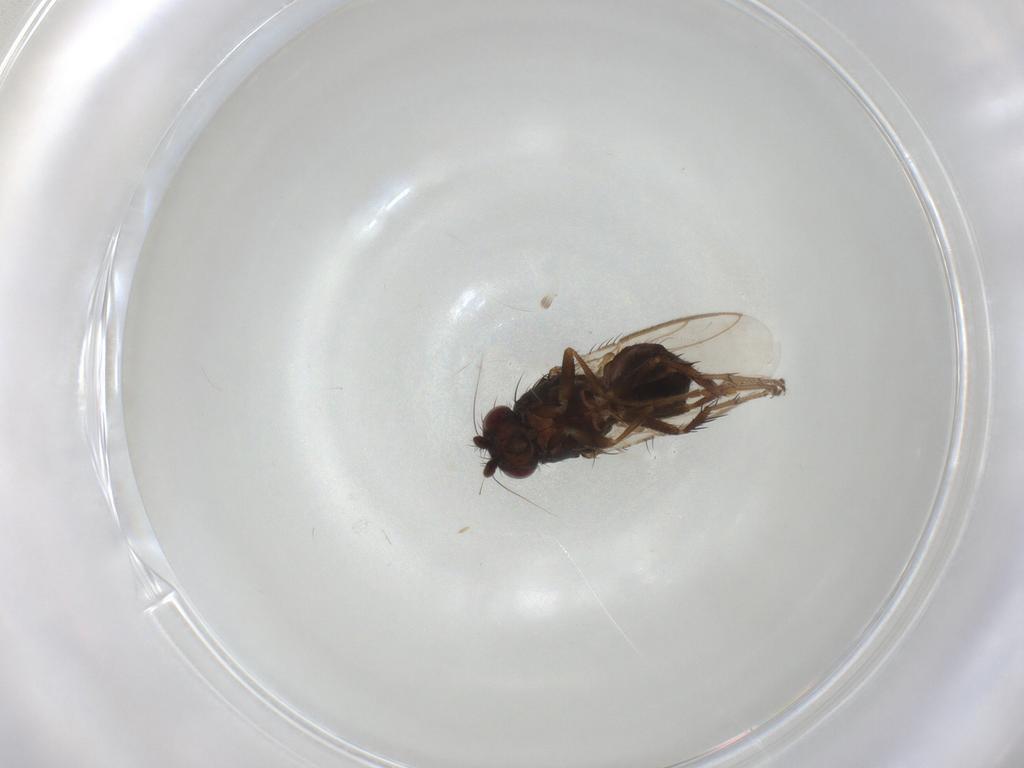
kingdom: Animalia
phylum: Arthropoda
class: Insecta
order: Diptera
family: Sphaeroceridae
